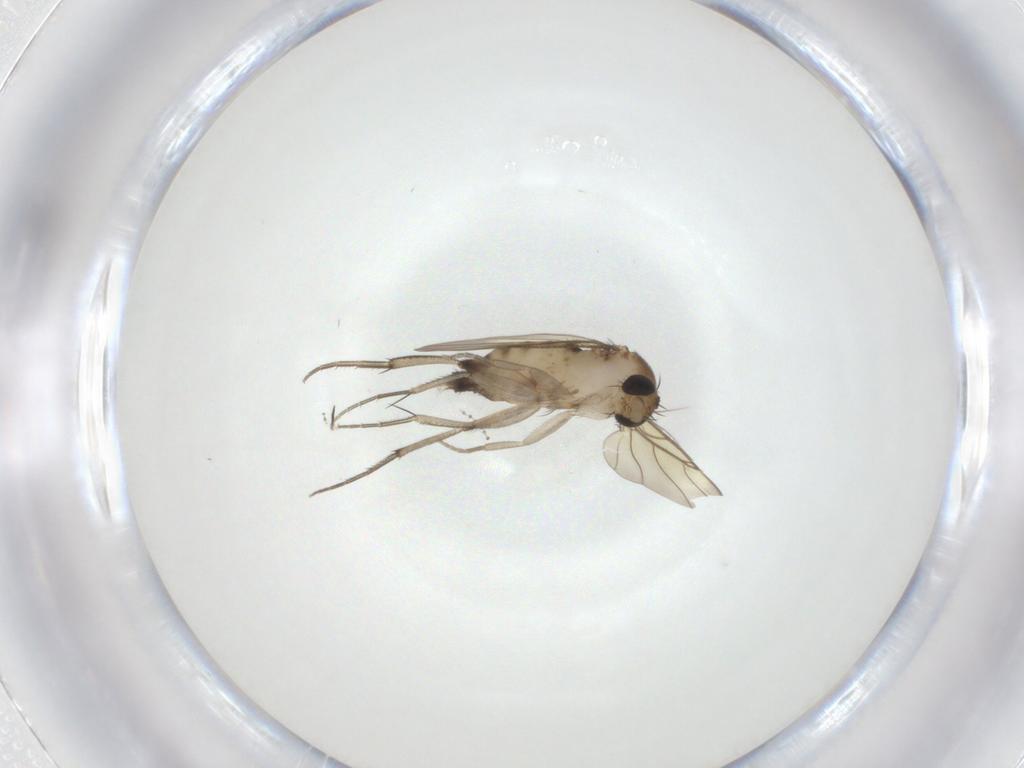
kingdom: Animalia
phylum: Arthropoda
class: Insecta
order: Diptera
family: Phoridae
